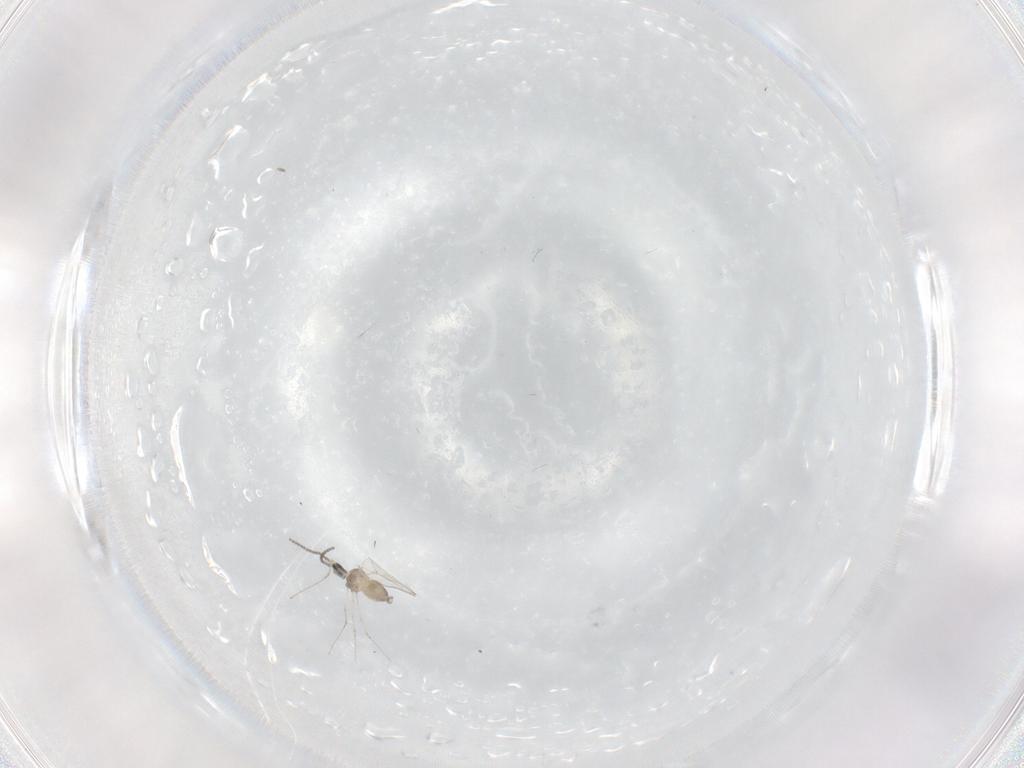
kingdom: Animalia
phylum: Arthropoda
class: Insecta
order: Diptera
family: Cecidomyiidae
